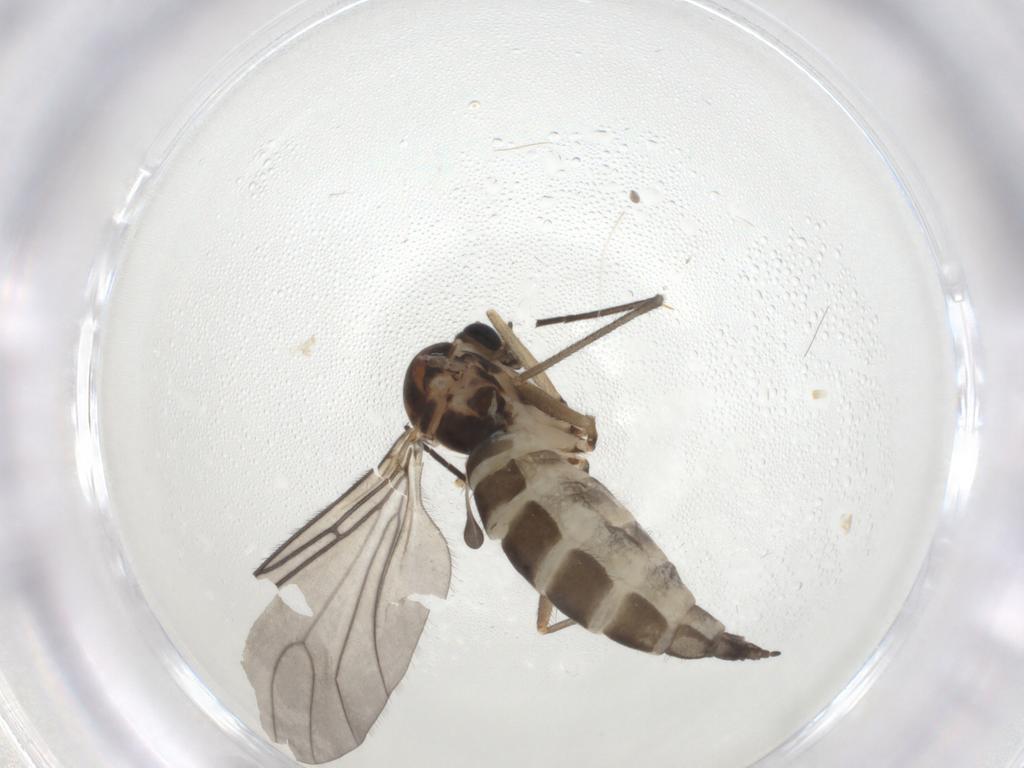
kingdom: Animalia
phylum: Arthropoda
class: Insecta
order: Diptera
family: Sciaridae
